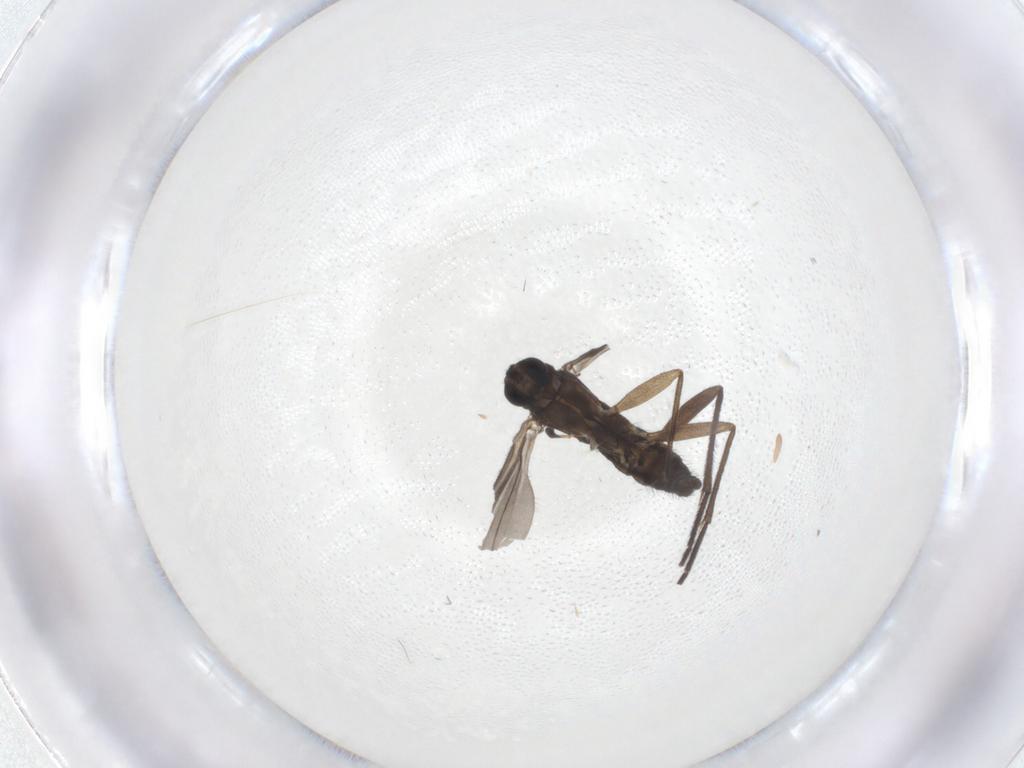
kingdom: Animalia
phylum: Arthropoda
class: Insecta
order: Diptera
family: Sciaridae
